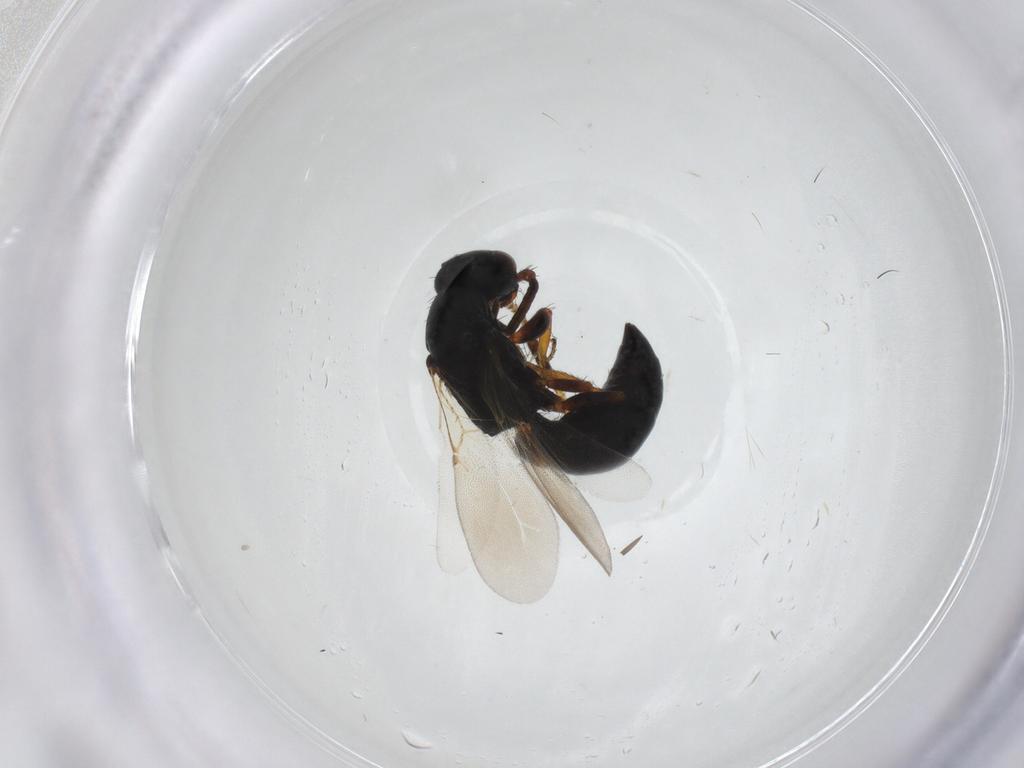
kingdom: Animalia
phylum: Arthropoda
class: Insecta
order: Hymenoptera
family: Bethylidae
